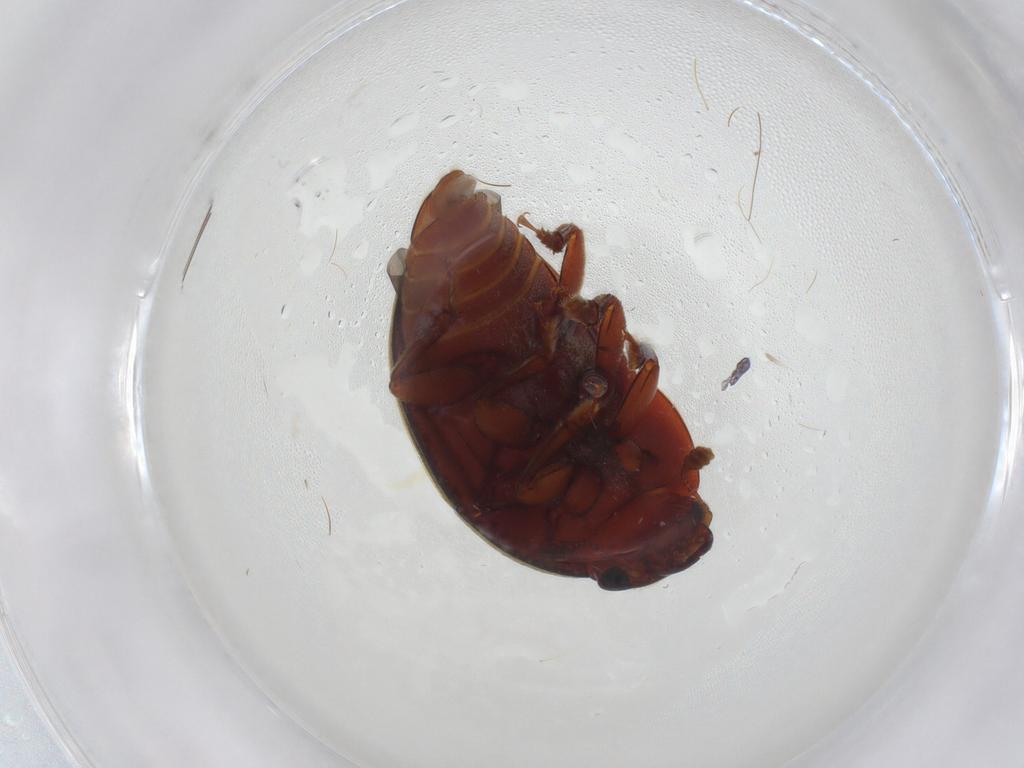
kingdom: Animalia
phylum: Arthropoda
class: Insecta
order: Coleoptera
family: Nitidulidae
